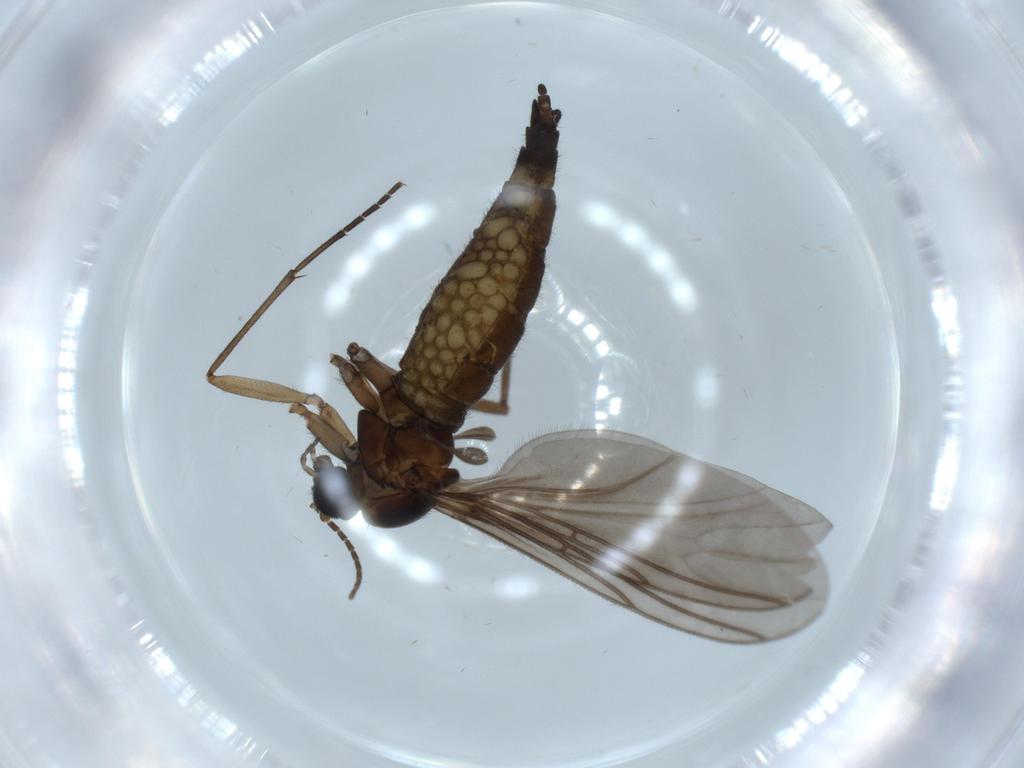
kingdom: Animalia
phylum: Arthropoda
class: Insecta
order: Diptera
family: Sciaridae
